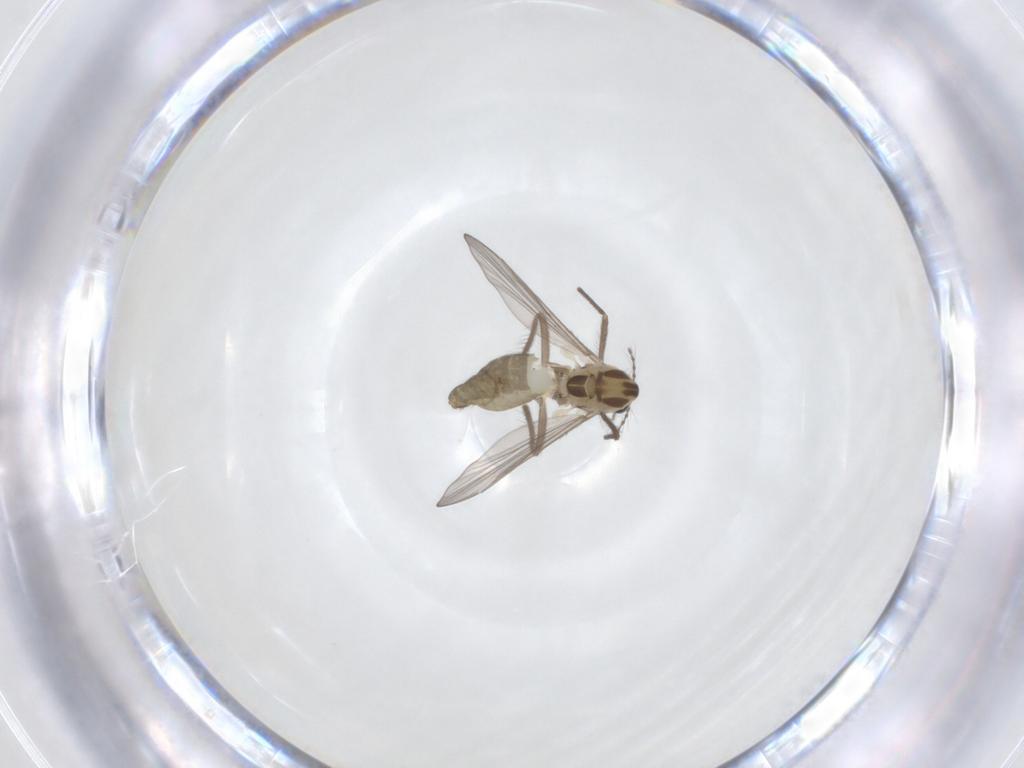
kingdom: Animalia
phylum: Arthropoda
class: Insecta
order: Diptera
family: Chironomidae
